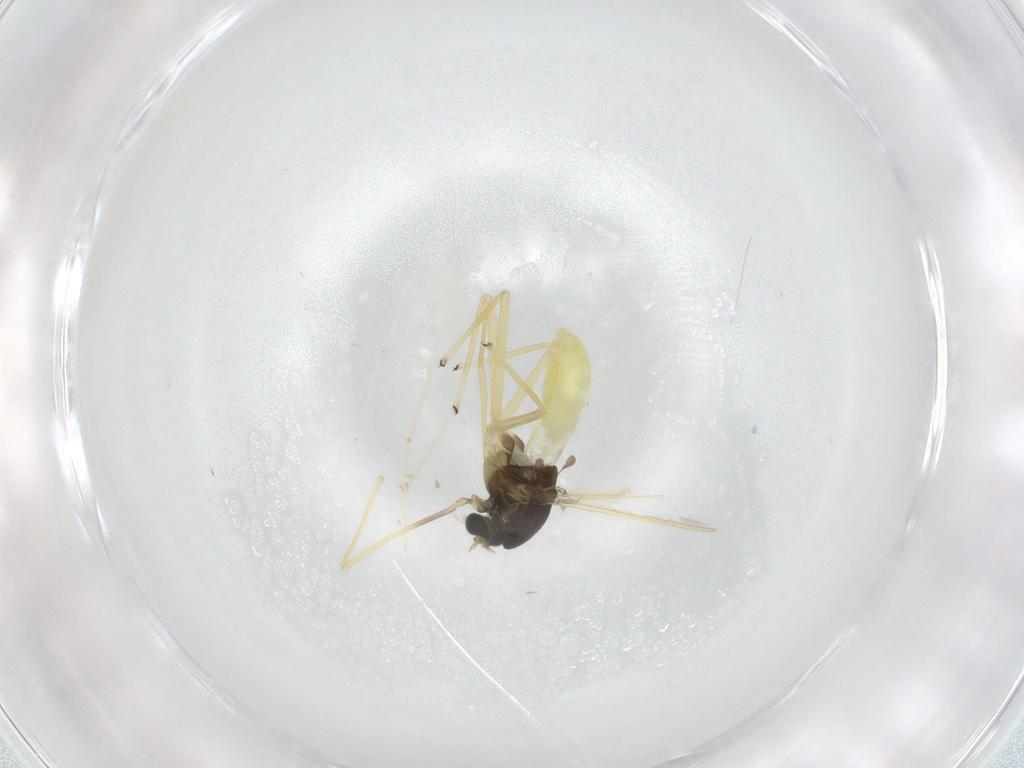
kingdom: Animalia
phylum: Arthropoda
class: Insecta
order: Diptera
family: Chironomidae
